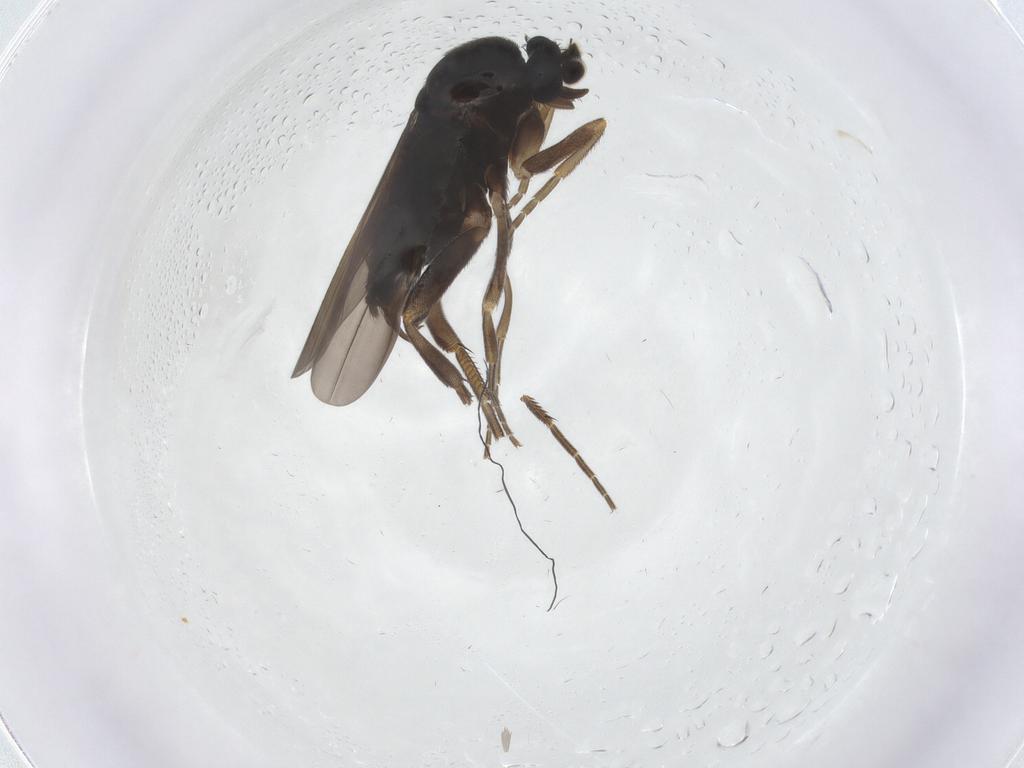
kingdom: Animalia
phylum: Arthropoda
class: Insecta
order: Diptera
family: Phoridae
